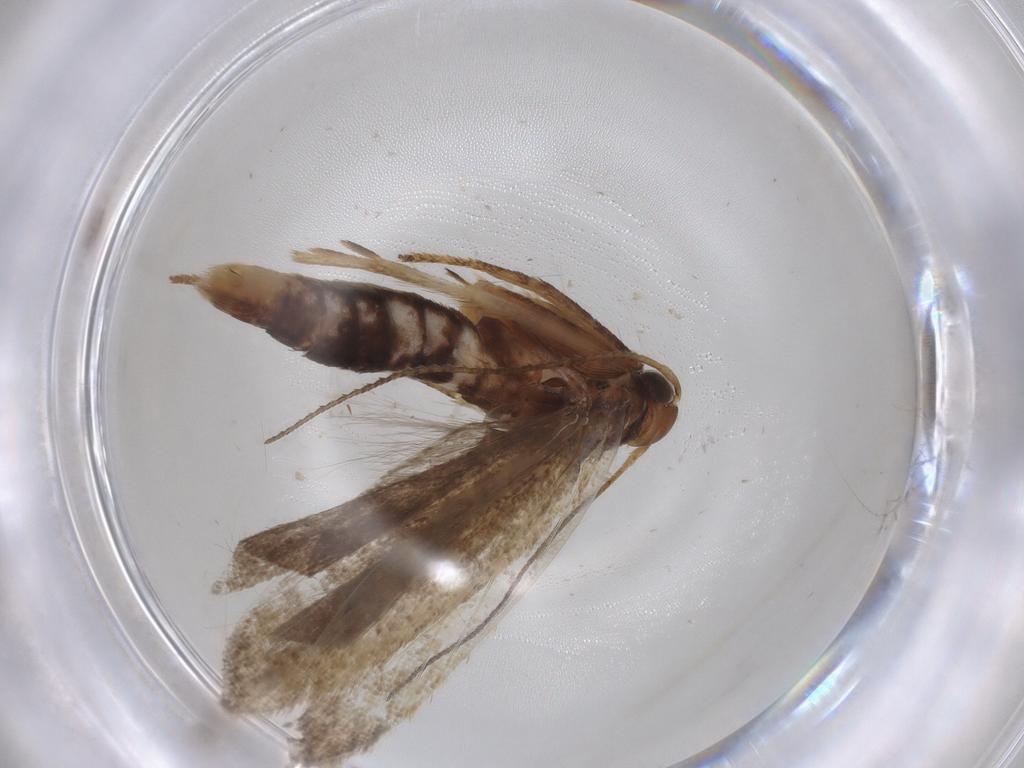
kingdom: Animalia
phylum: Arthropoda
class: Insecta
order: Lepidoptera
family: Gelechiidae
